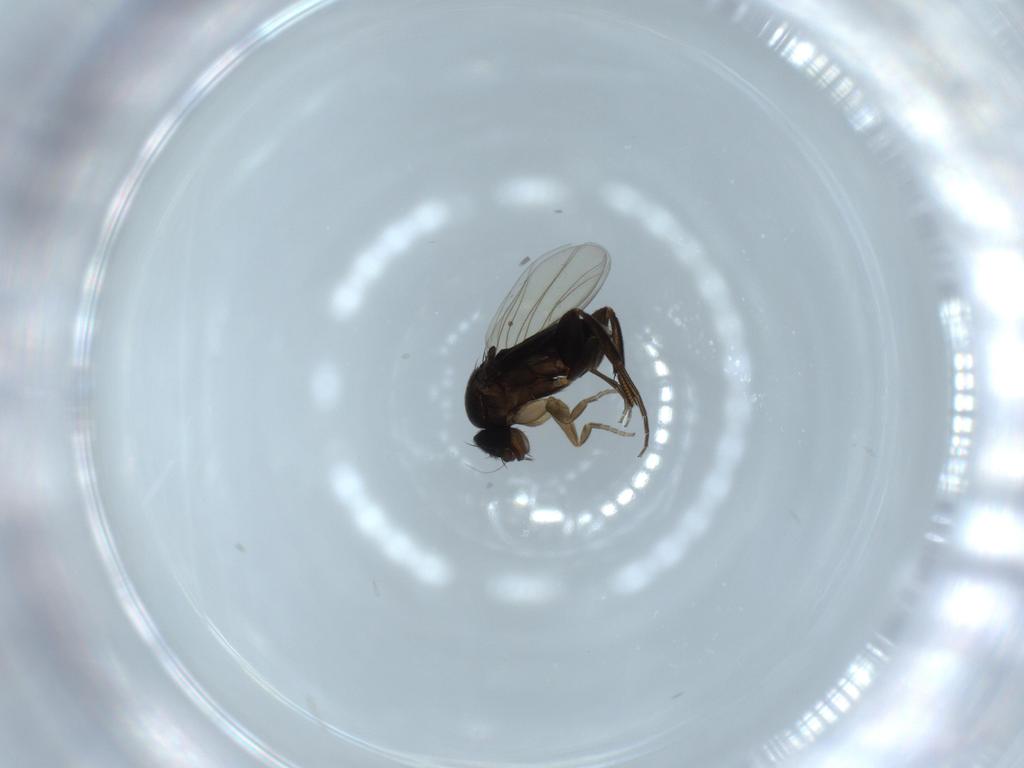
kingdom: Animalia
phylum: Arthropoda
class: Insecta
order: Diptera
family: Phoridae
